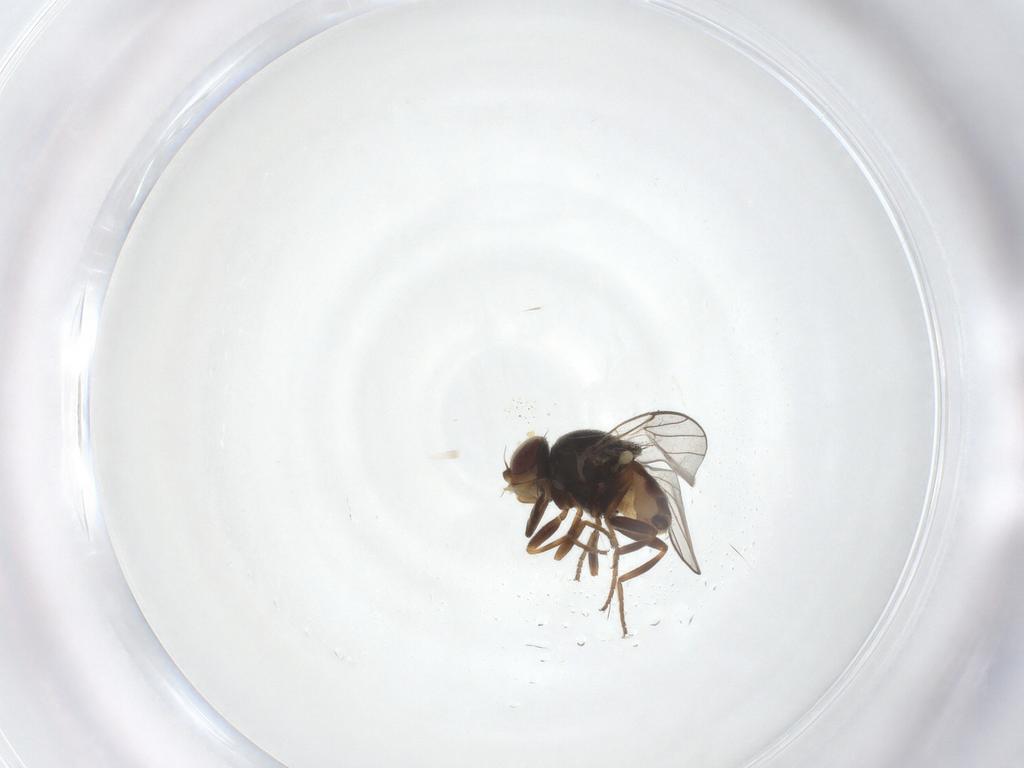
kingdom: Animalia
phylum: Arthropoda
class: Insecta
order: Diptera
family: Chloropidae
